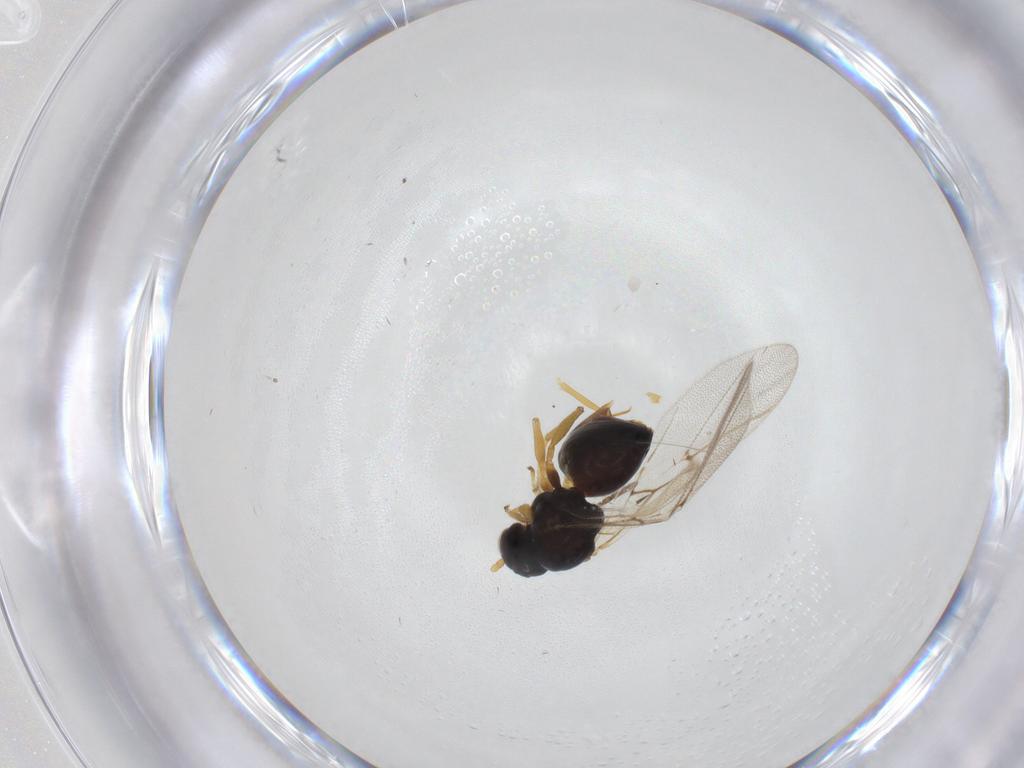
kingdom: Animalia
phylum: Arthropoda
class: Insecta
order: Hymenoptera
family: Cynipidae
